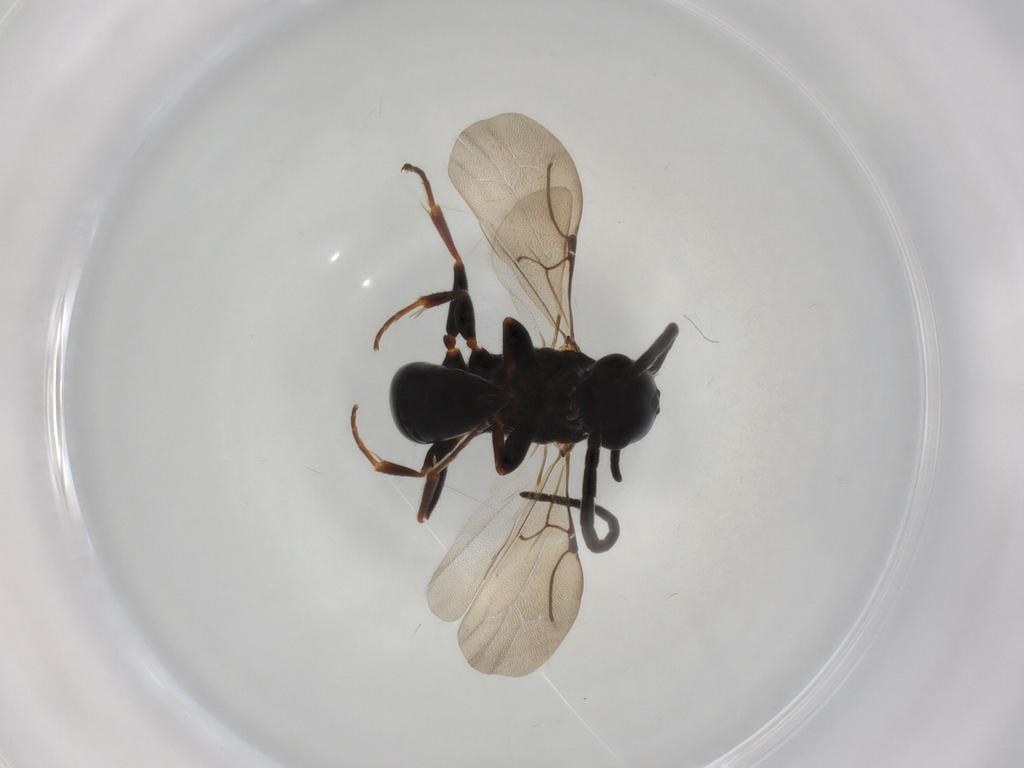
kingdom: Animalia
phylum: Arthropoda
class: Insecta
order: Hymenoptera
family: Bethylidae
